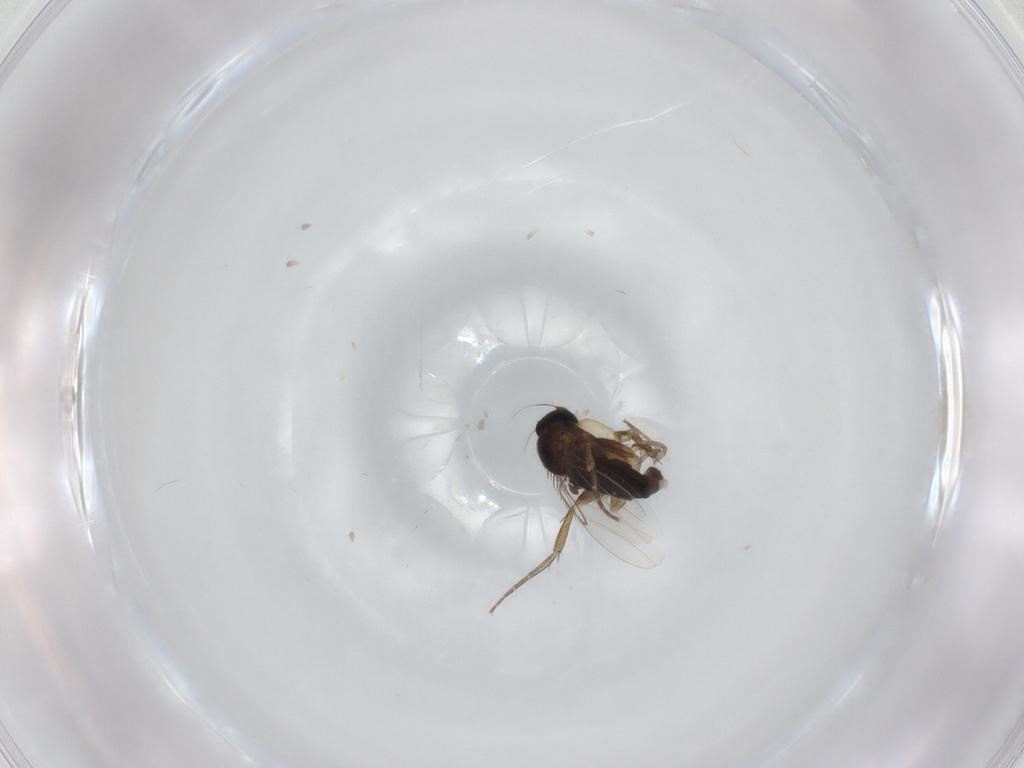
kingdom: Animalia
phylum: Arthropoda
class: Insecta
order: Diptera
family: Phoridae
